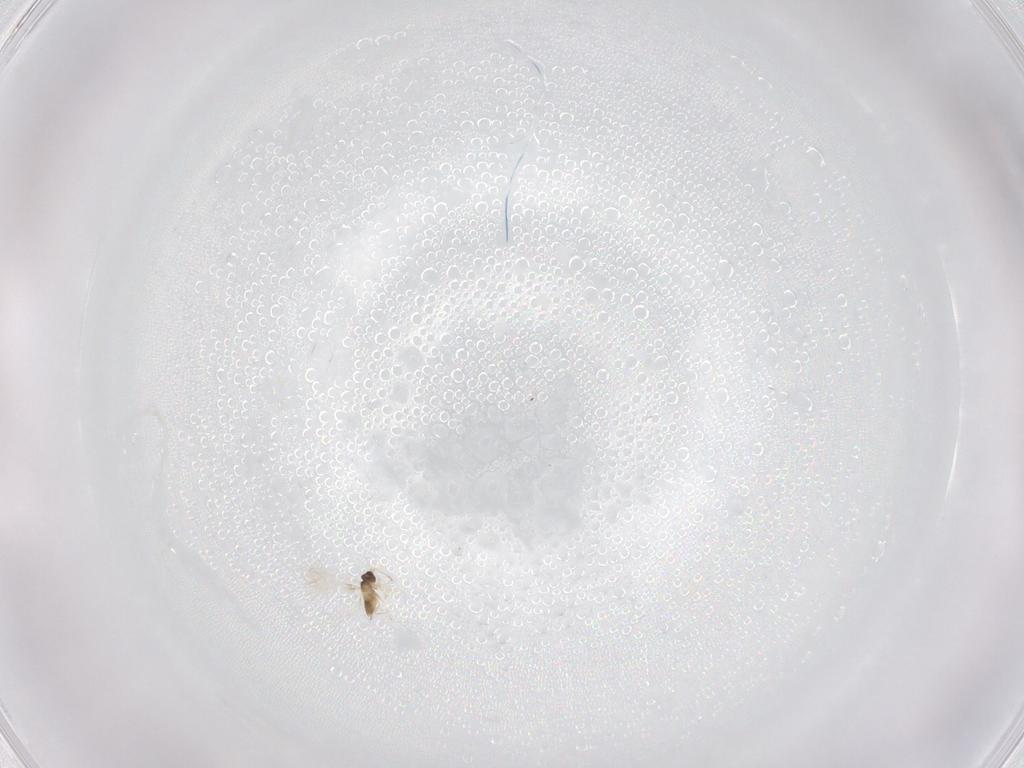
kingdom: Animalia
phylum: Arthropoda
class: Insecta
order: Hymenoptera
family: Mymaridae
